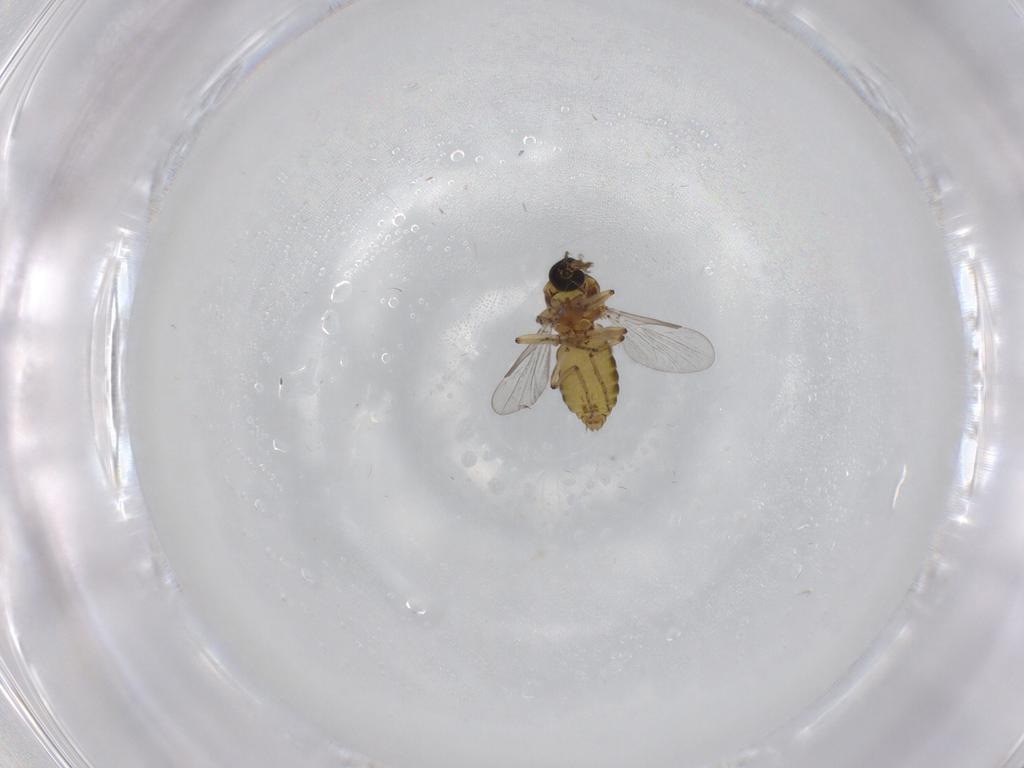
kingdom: Animalia
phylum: Arthropoda
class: Insecta
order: Diptera
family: Ceratopogonidae
